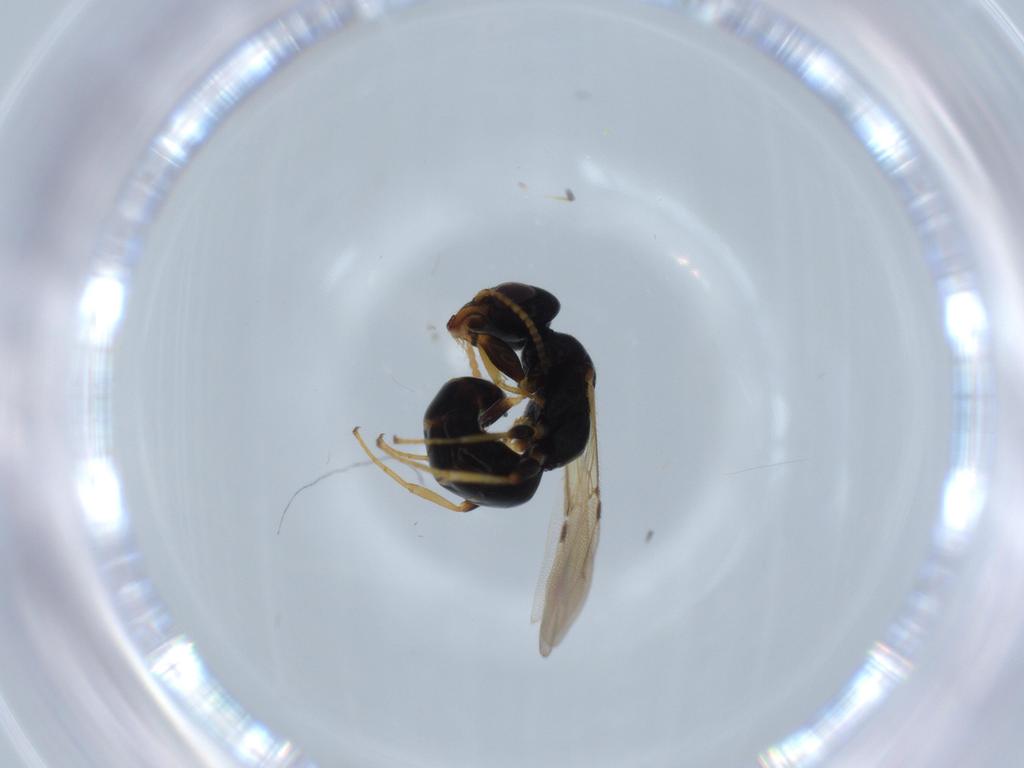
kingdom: Animalia
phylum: Arthropoda
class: Insecta
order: Hymenoptera
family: Bethylidae
